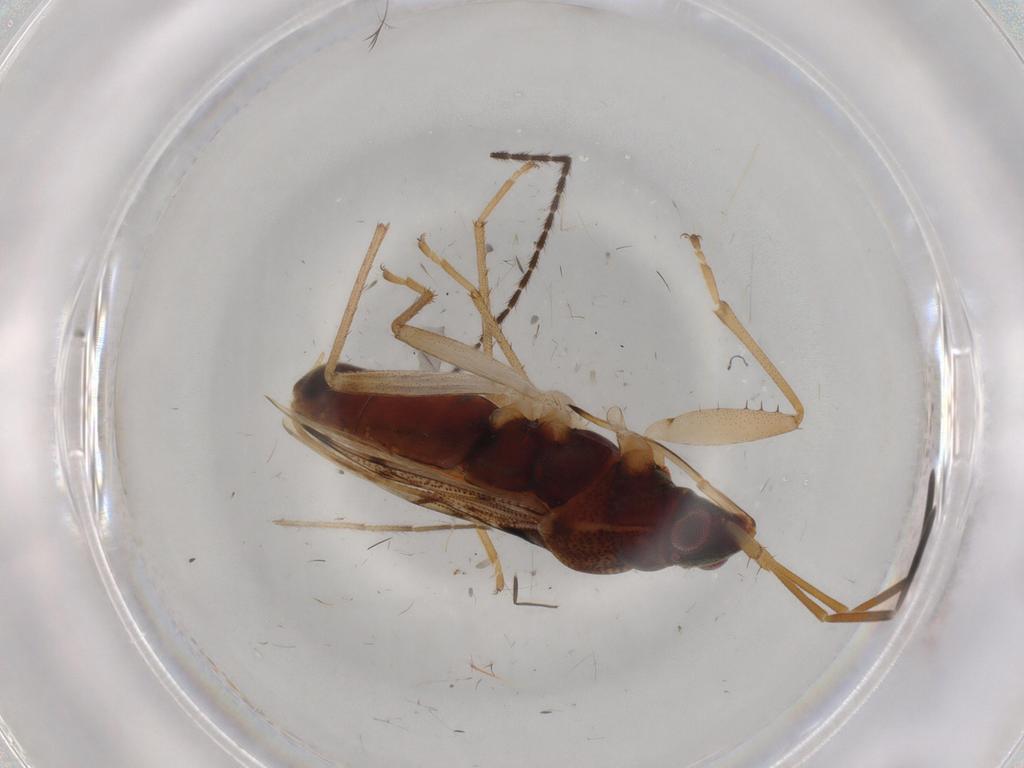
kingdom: Animalia
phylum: Arthropoda
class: Insecta
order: Hemiptera
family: Rhyparochromidae
